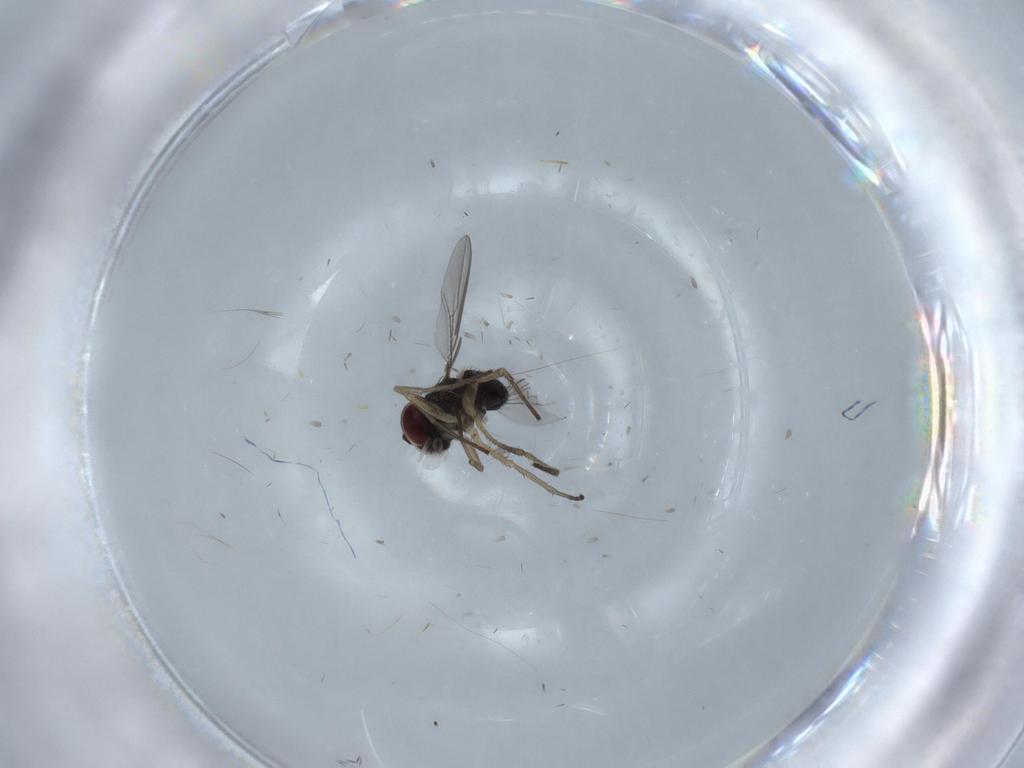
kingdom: Animalia
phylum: Arthropoda
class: Insecta
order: Diptera
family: Dolichopodidae
